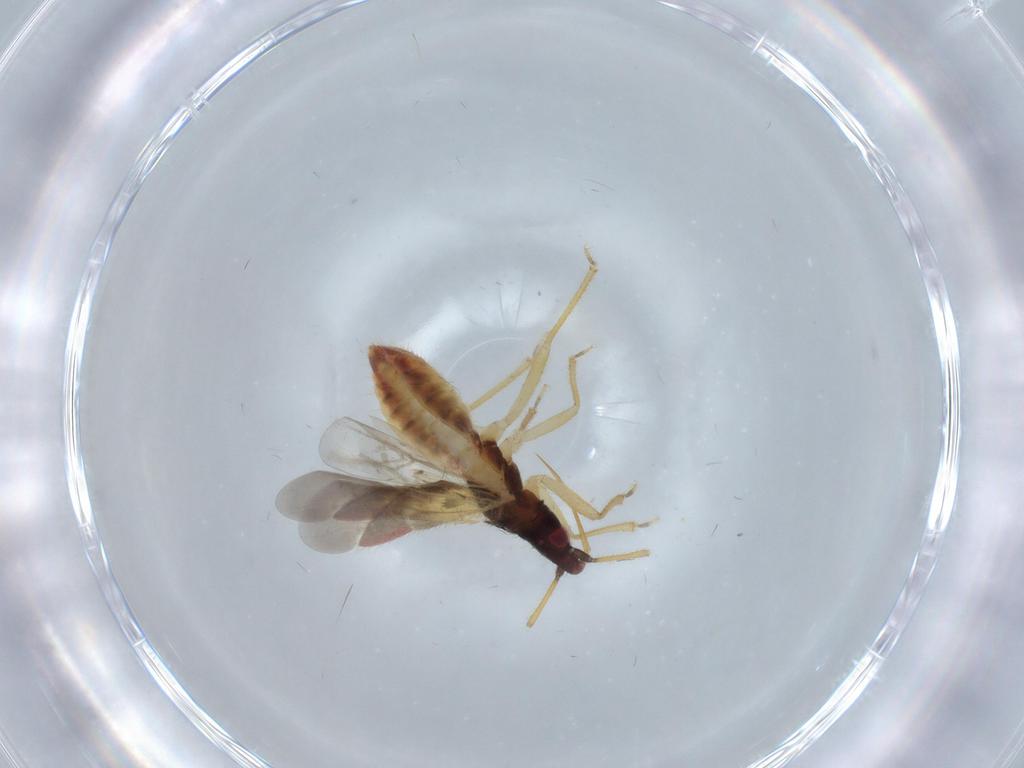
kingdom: Animalia
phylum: Arthropoda
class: Insecta
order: Hemiptera
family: Lasiochilidae
